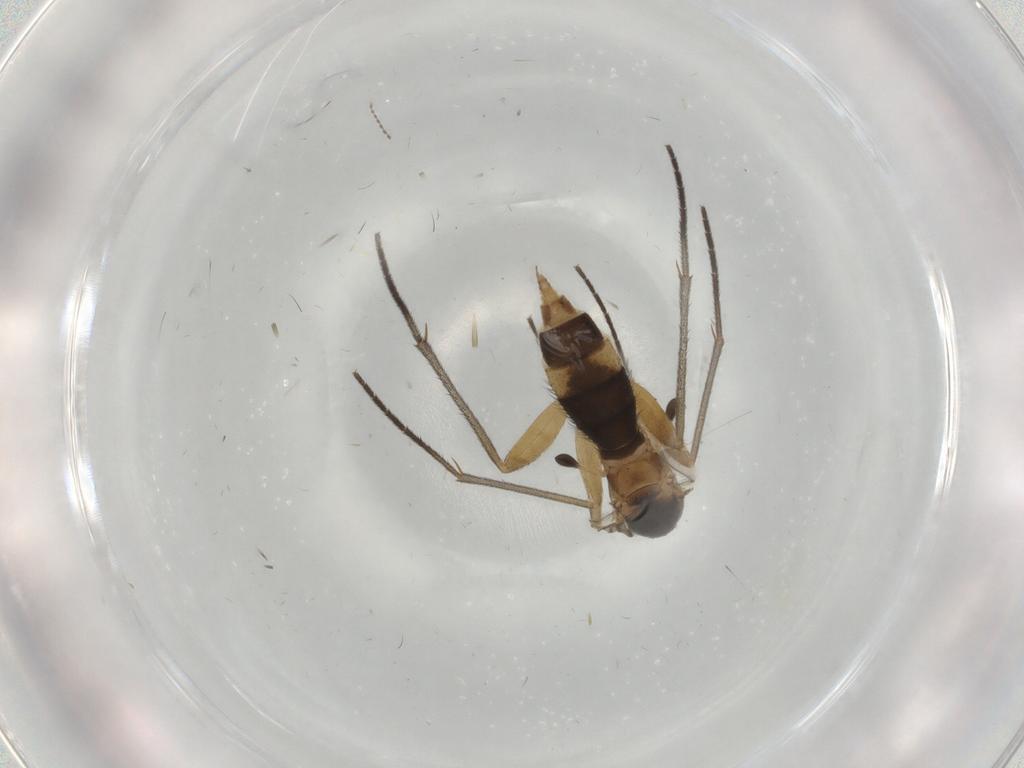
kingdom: Animalia
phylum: Arthropoda
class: Insecta
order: Diptera
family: Sciaridae
